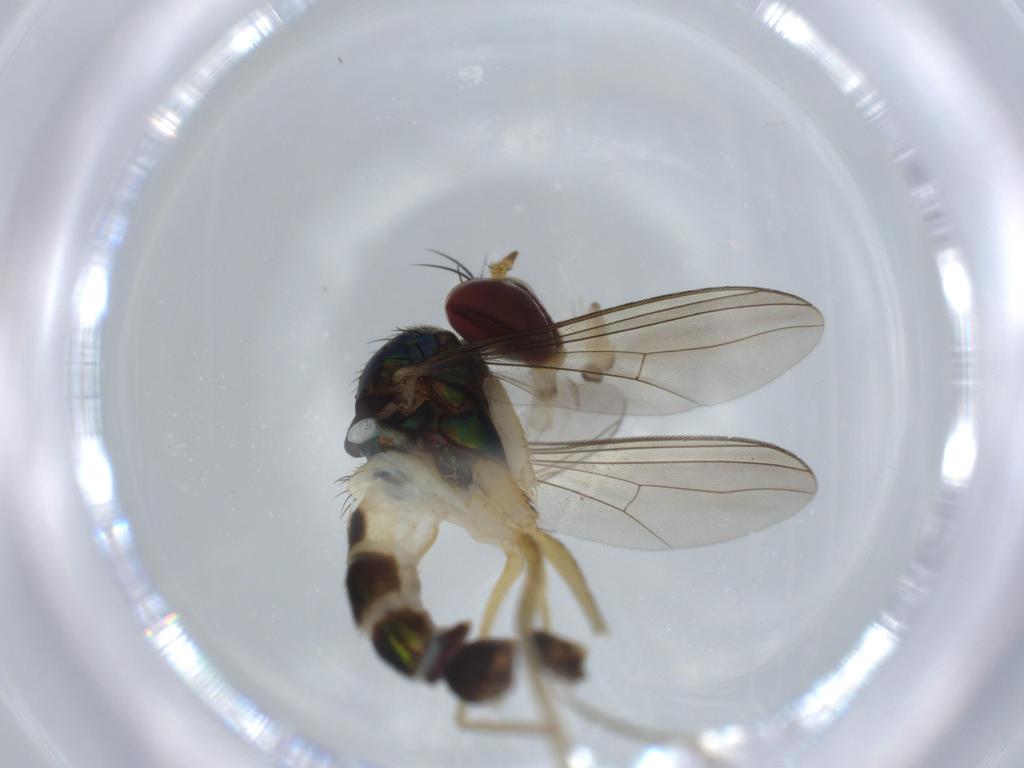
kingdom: Animalia
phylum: Arthropoda
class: Insecta
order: Diptera
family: Dolichopodidae
